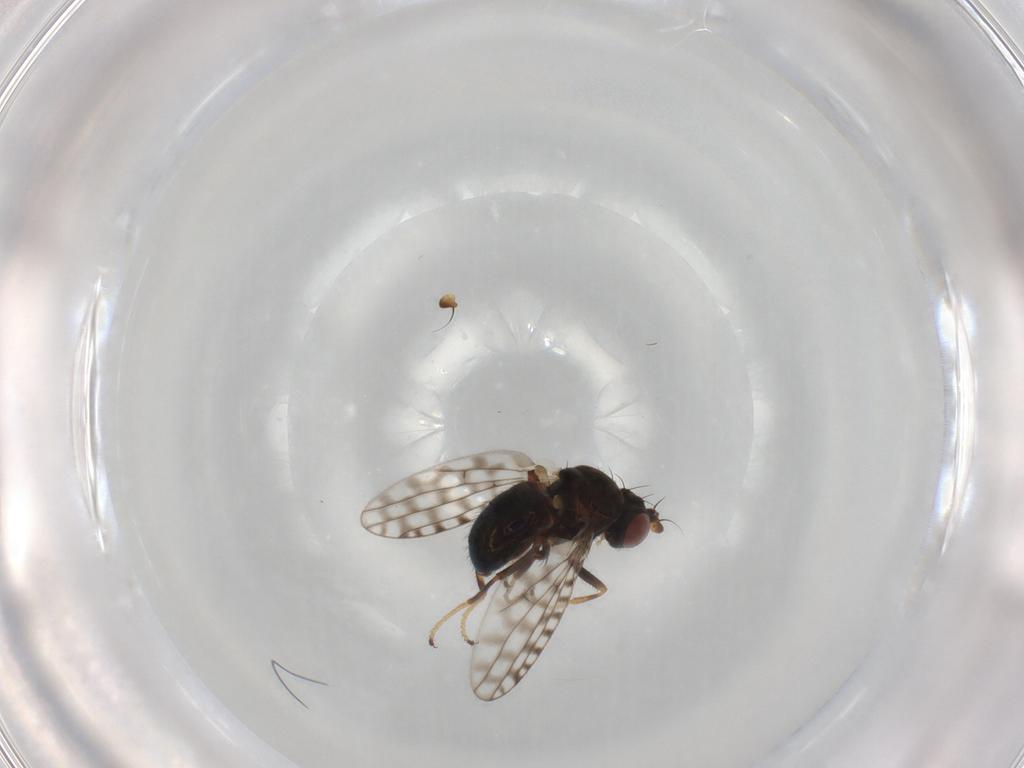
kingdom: Animalia
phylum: Arthropoda
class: Insecta
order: Diptera
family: Ephydridae
